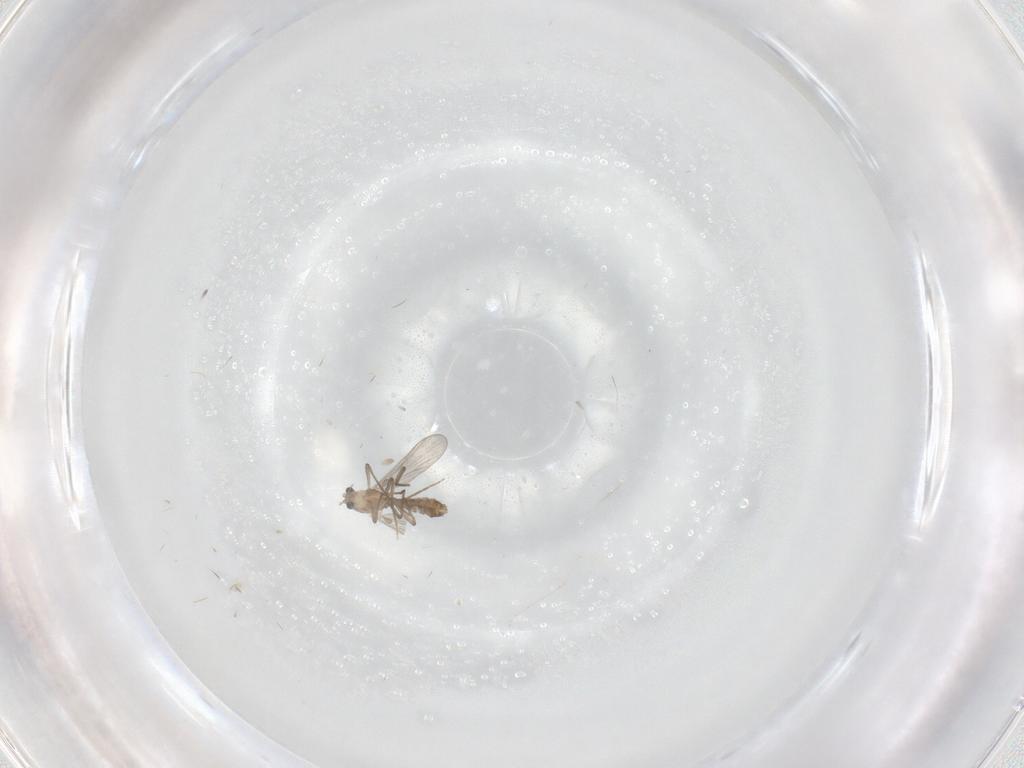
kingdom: Animalia
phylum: Arthropoda
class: Insecta
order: Diptera
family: Chironomidae
